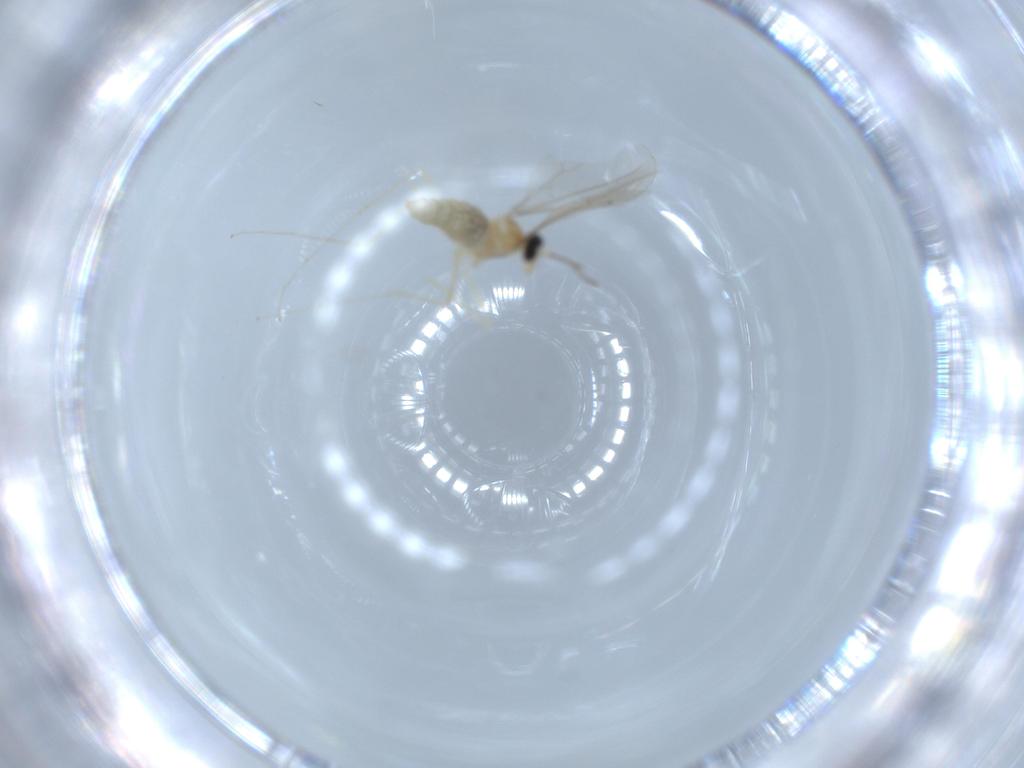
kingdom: Animalia
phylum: Arthropoda
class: Insecta
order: Diptera
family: Cecidomyiidae
